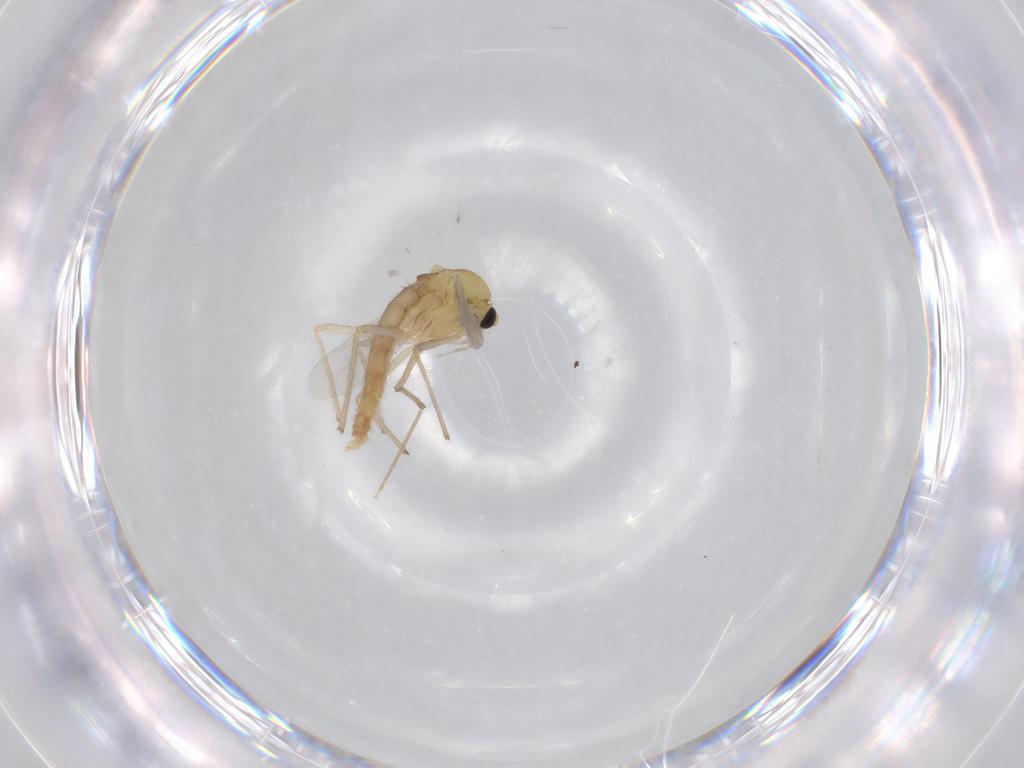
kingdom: Animalia
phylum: Arthropoda
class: Insecta
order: Diptera
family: Chironomidae
